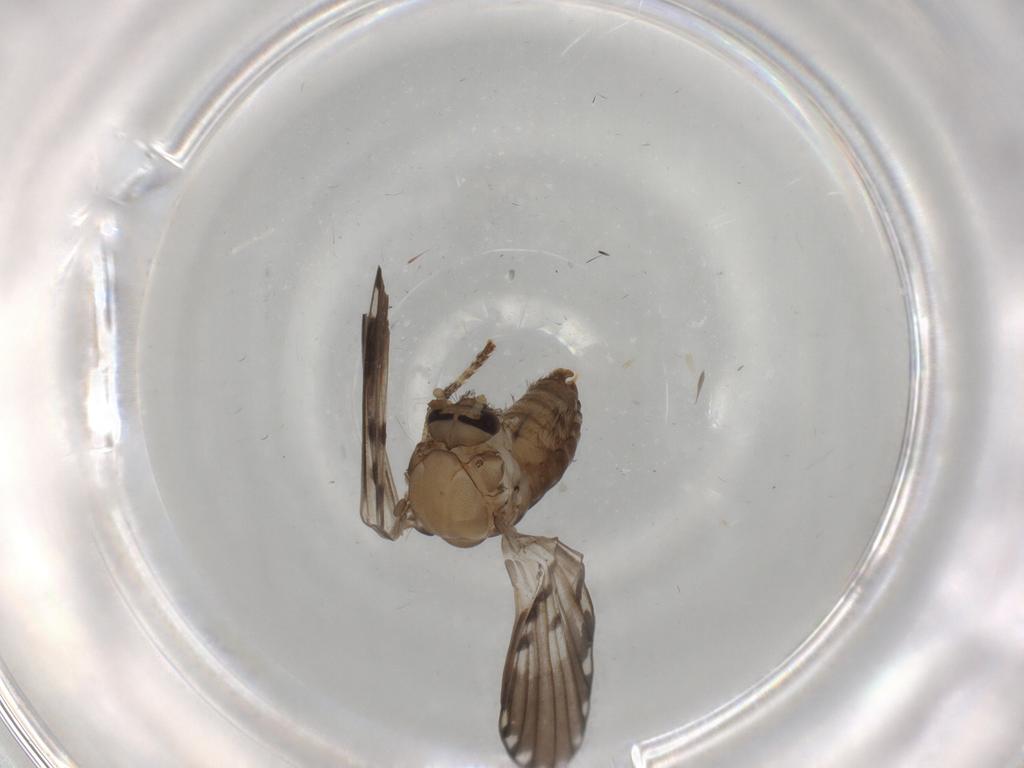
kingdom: Animalia
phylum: Arthropoda
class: Insecta
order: Diptera
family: Psychodidae
